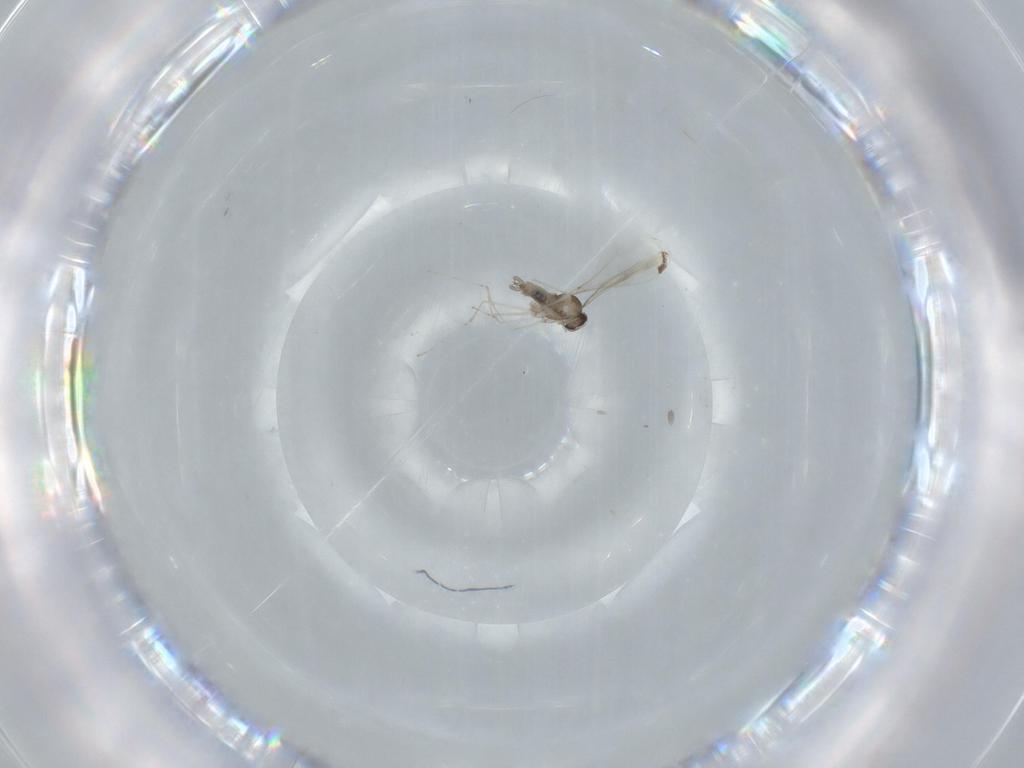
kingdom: Animalia
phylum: Arthropoda
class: Insecta
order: Diptera
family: Cecidomyiidae
